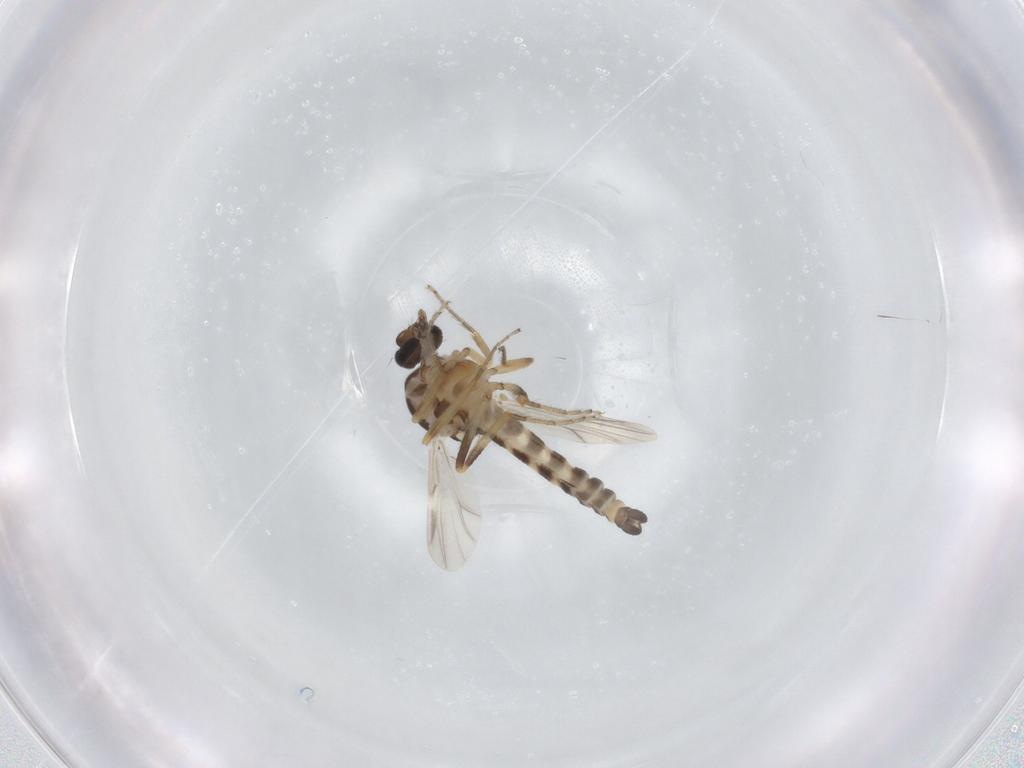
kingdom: Animalia
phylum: Arthropoda
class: Insecta
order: Diptera
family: Ceratopogonidae
